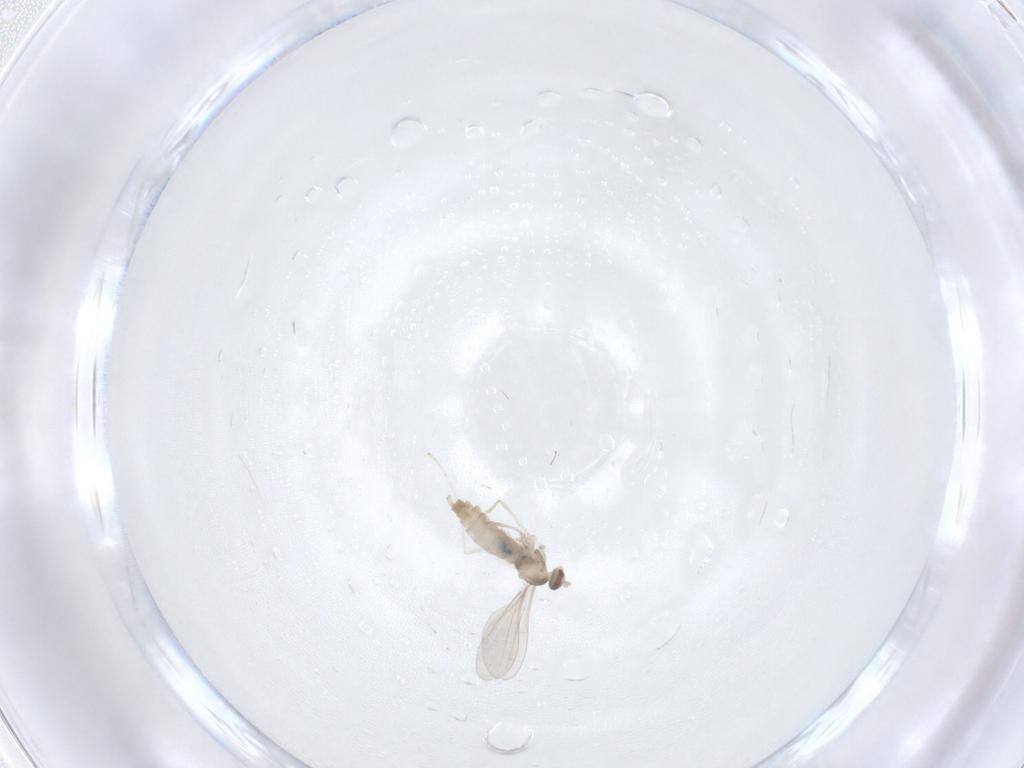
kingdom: Animalia
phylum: Arthropoda
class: Insecta
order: Diptera
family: Cecidomyiidae
